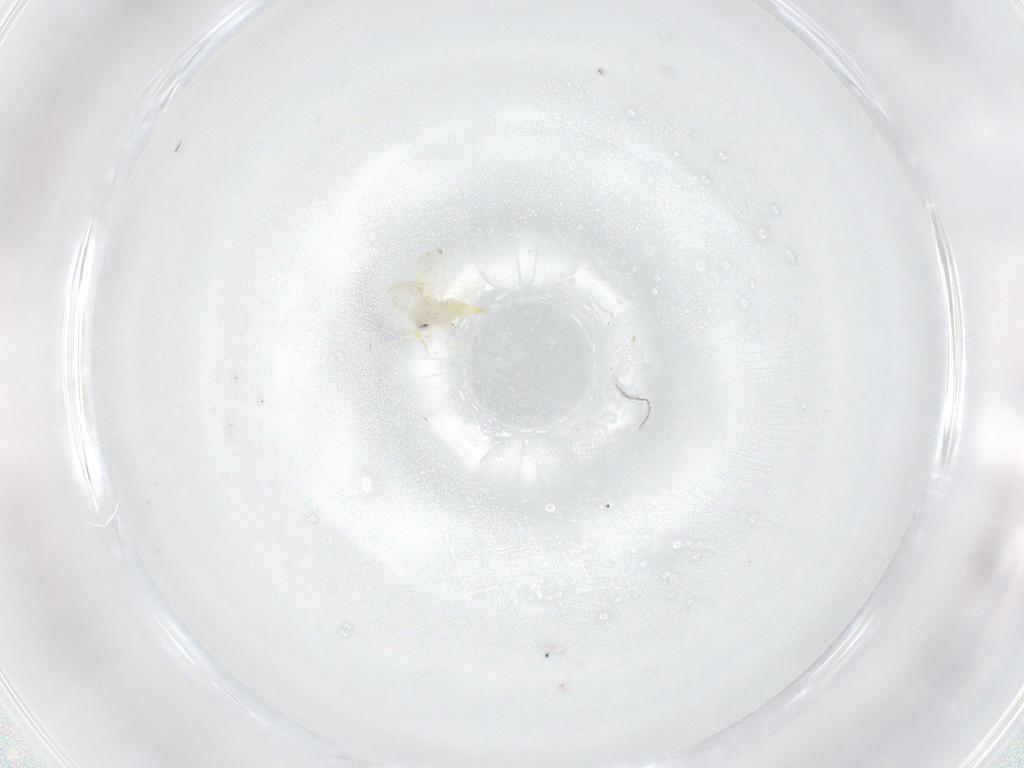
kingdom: Animalia
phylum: Arthropoda
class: Insecta
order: Hemiptera
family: Aleyrodidae
